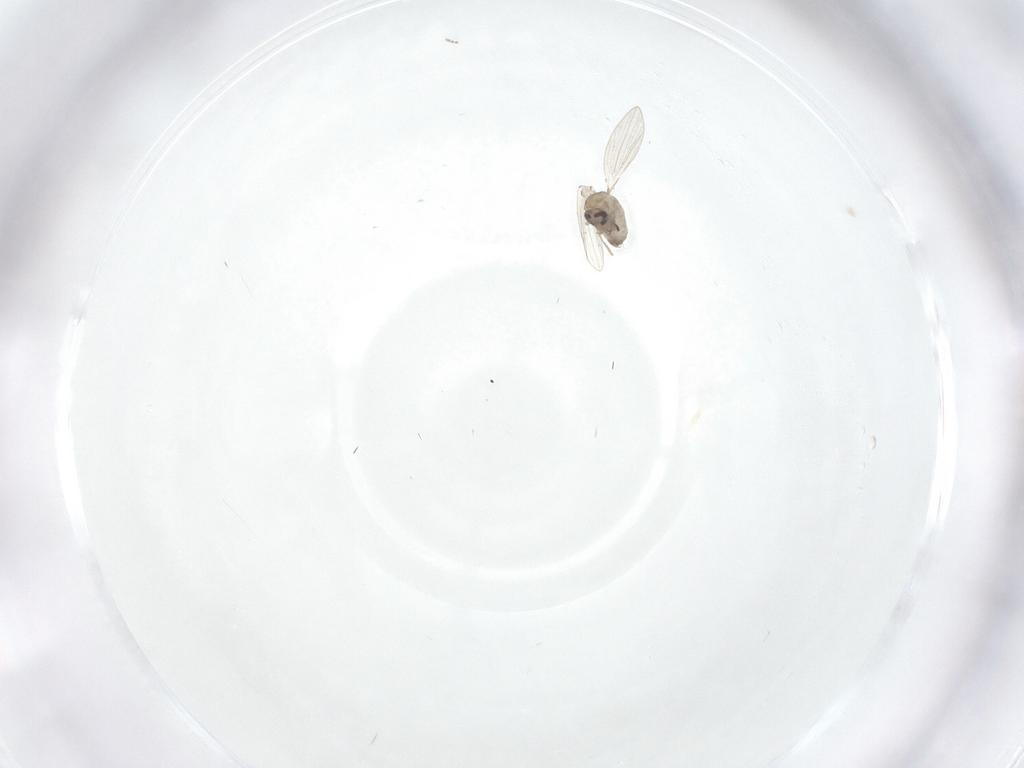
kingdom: Animalia
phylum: Arthropoda
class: Insecta
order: Diptera
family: Psychodidae
